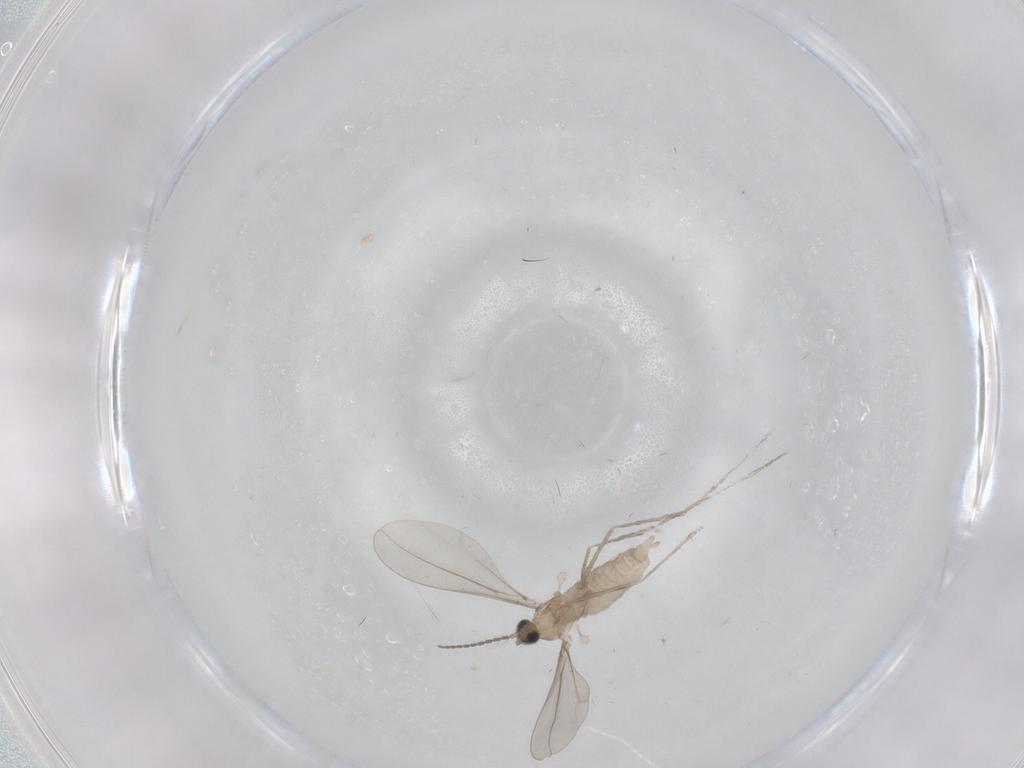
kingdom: Animalia
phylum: Arthropoda
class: Insecta
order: Diptera
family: Cecidomyiidae
